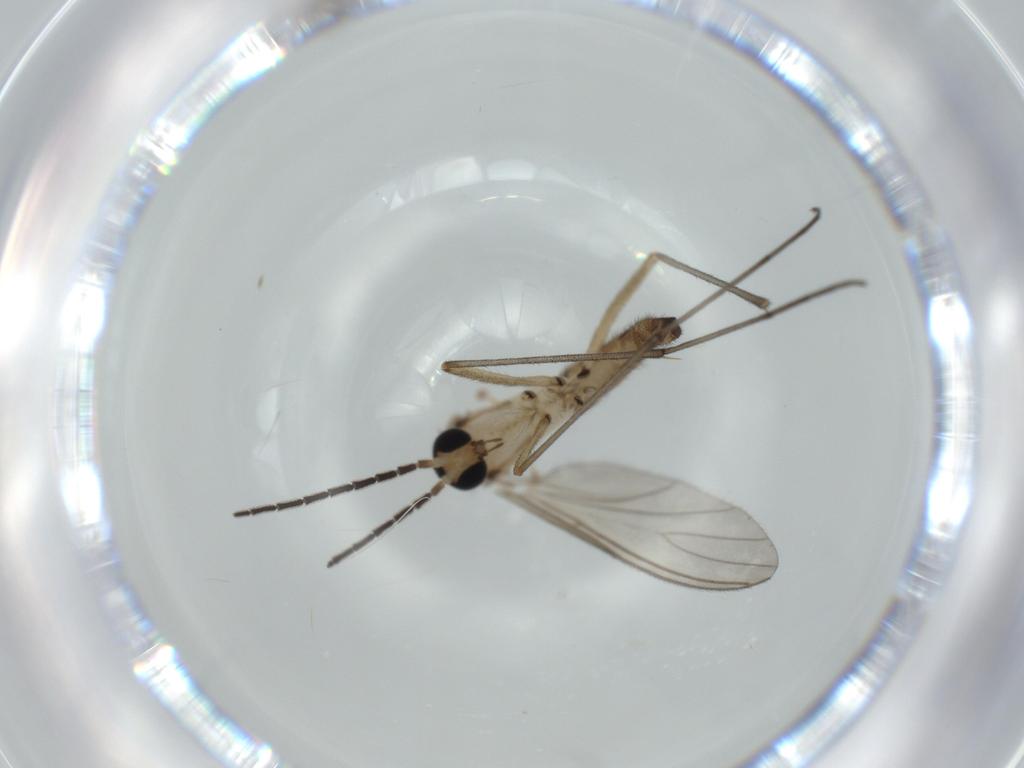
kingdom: Animalia
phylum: Arthropoda
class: Insecta
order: Diptera
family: Sciaridae
